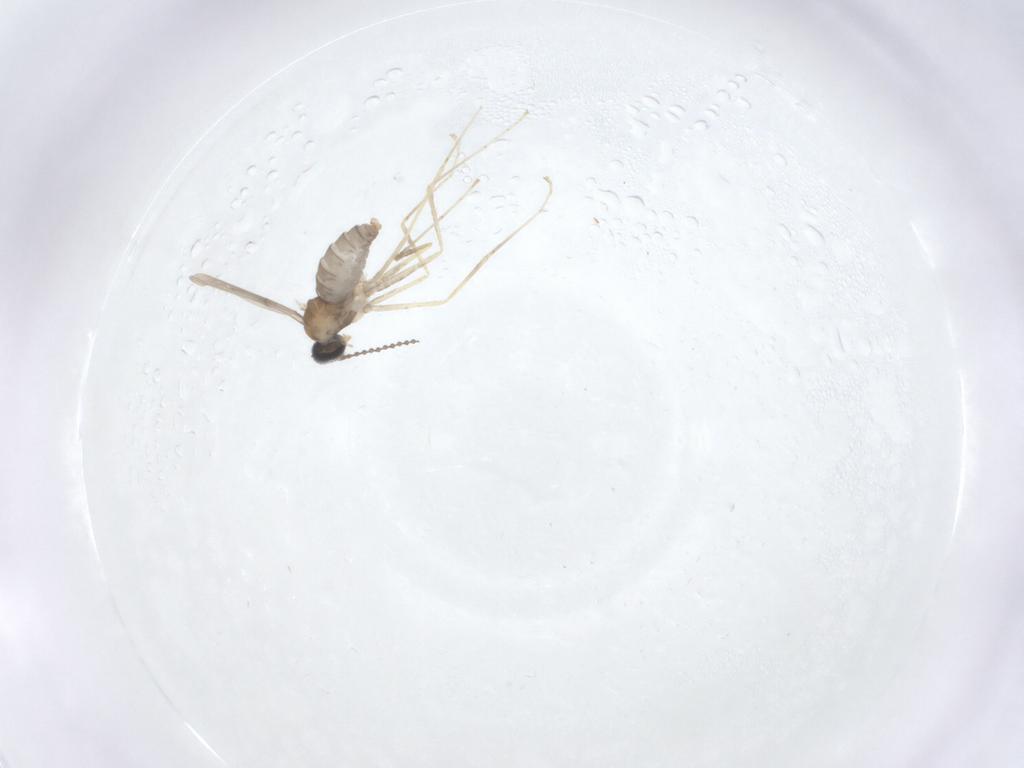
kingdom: Animalia
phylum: Arthropoda
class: Insecta
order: Diptera
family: Cecidomyiidae
